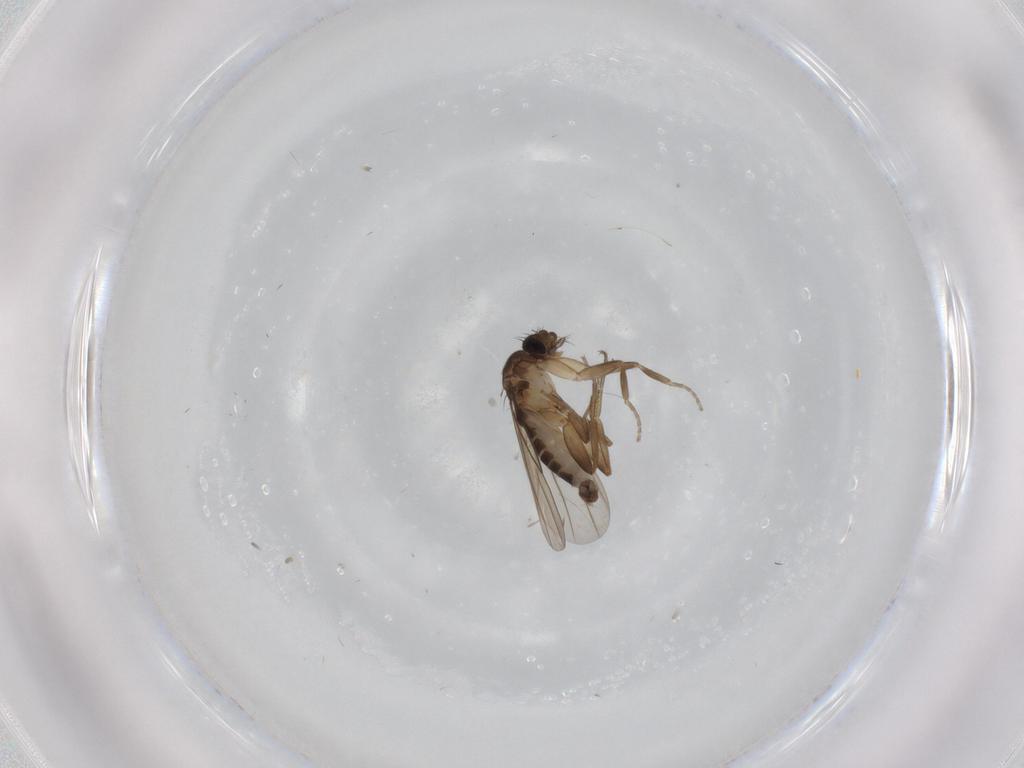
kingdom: Animalia
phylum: Arthropoda
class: Insecta
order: Diptera
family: Phoridae
